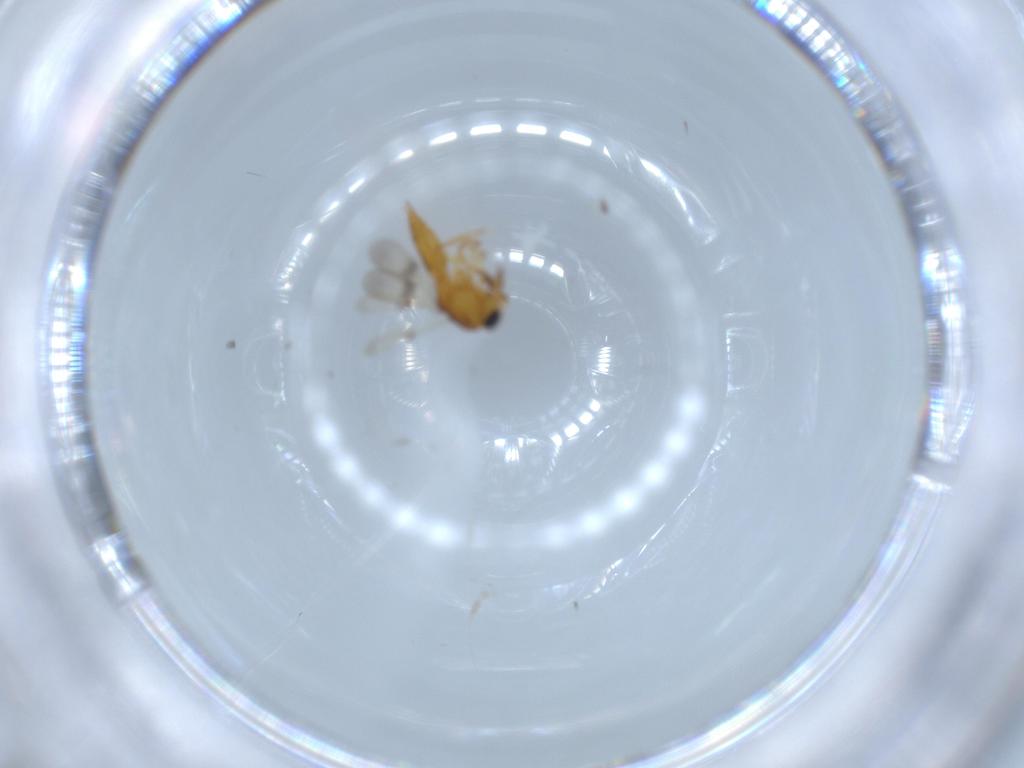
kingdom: Animalia
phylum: Arthropoda
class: Insecta
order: Hymenoptera
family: Scelionidae
